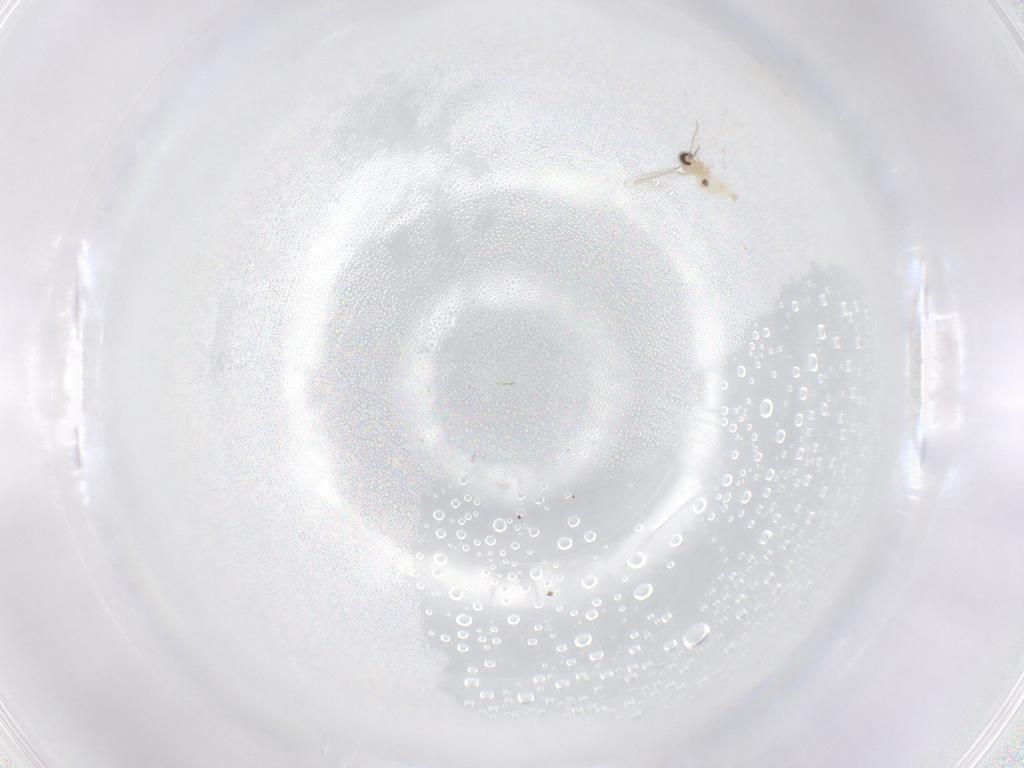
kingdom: Animalia
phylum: Arthropoda
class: Insecta
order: Diptera
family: Cecidomyiidae
